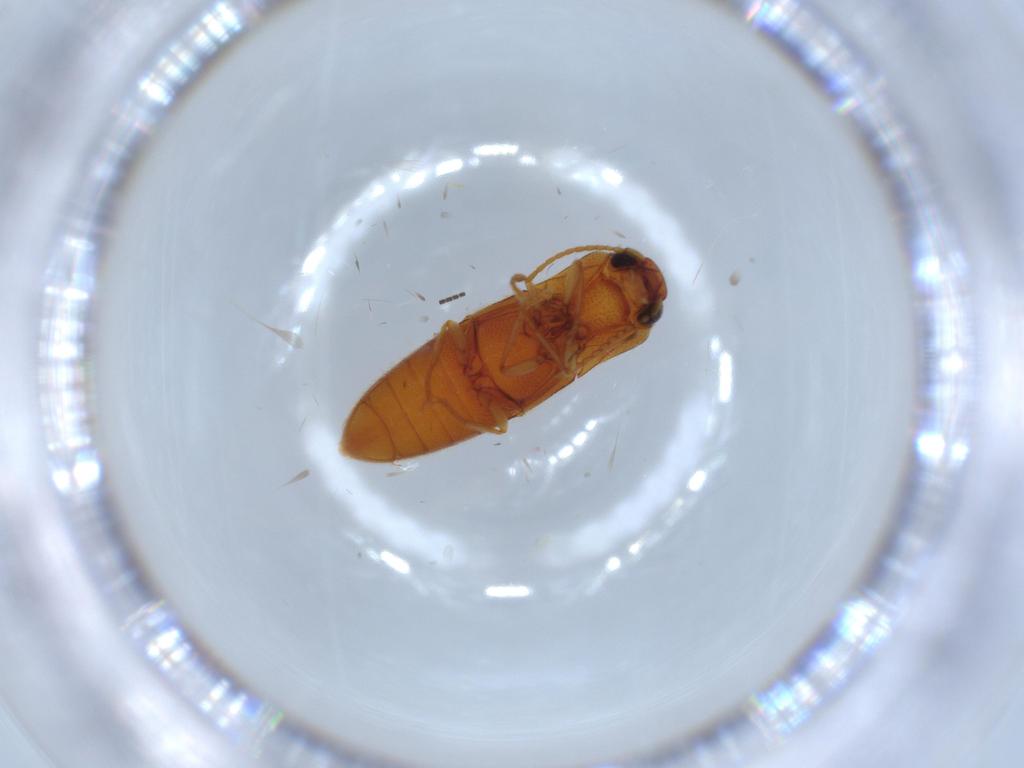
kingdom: Animalia
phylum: Arthropoda
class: Insecta
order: Coleoptera
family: Elateridae
